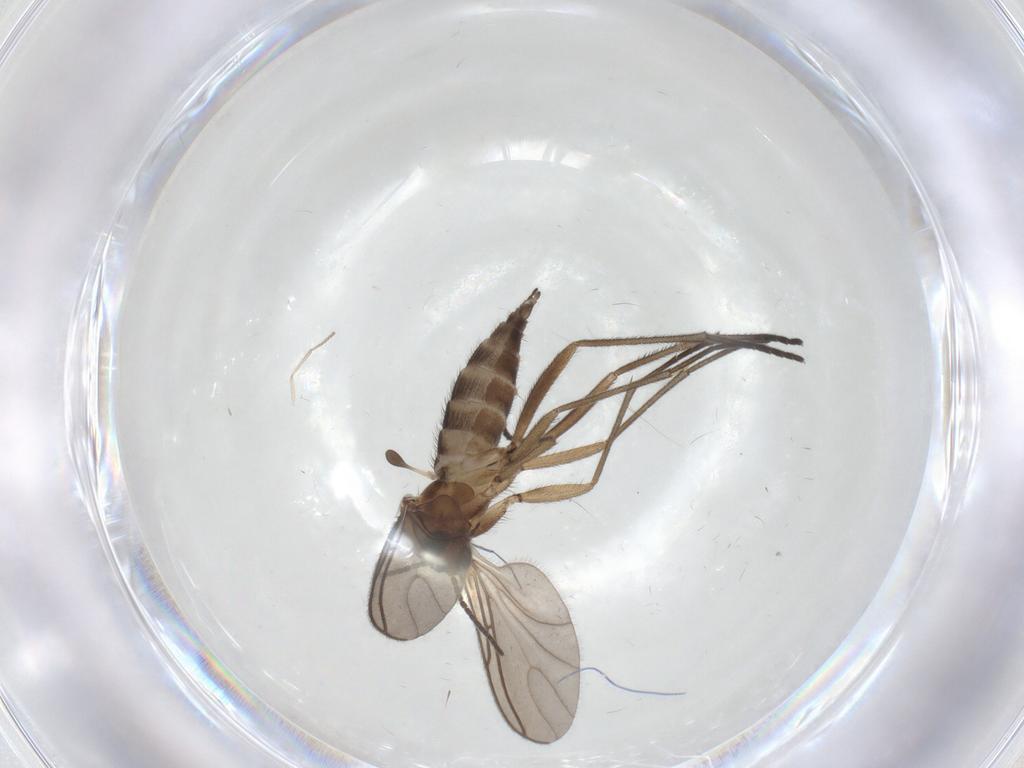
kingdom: Animalia
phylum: Arthropoda
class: Insecta
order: Diptera
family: Sciaridae
